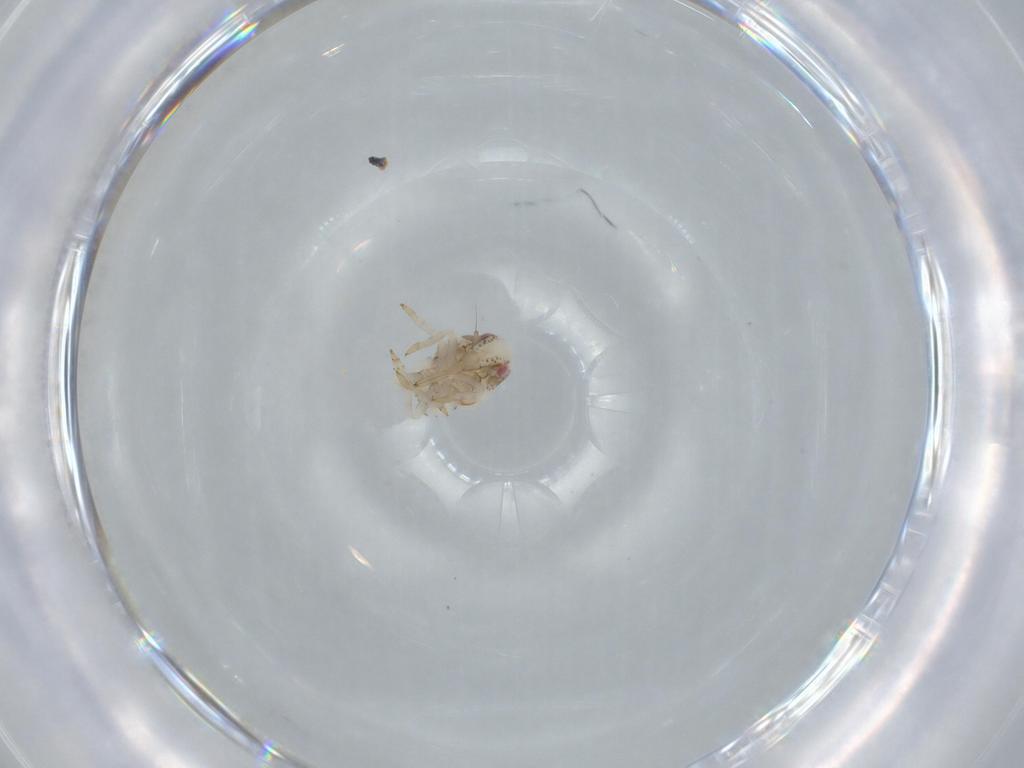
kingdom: Animalia
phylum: Arthropoda
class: Insecta
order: Hemiptera
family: Acanaloniidae
